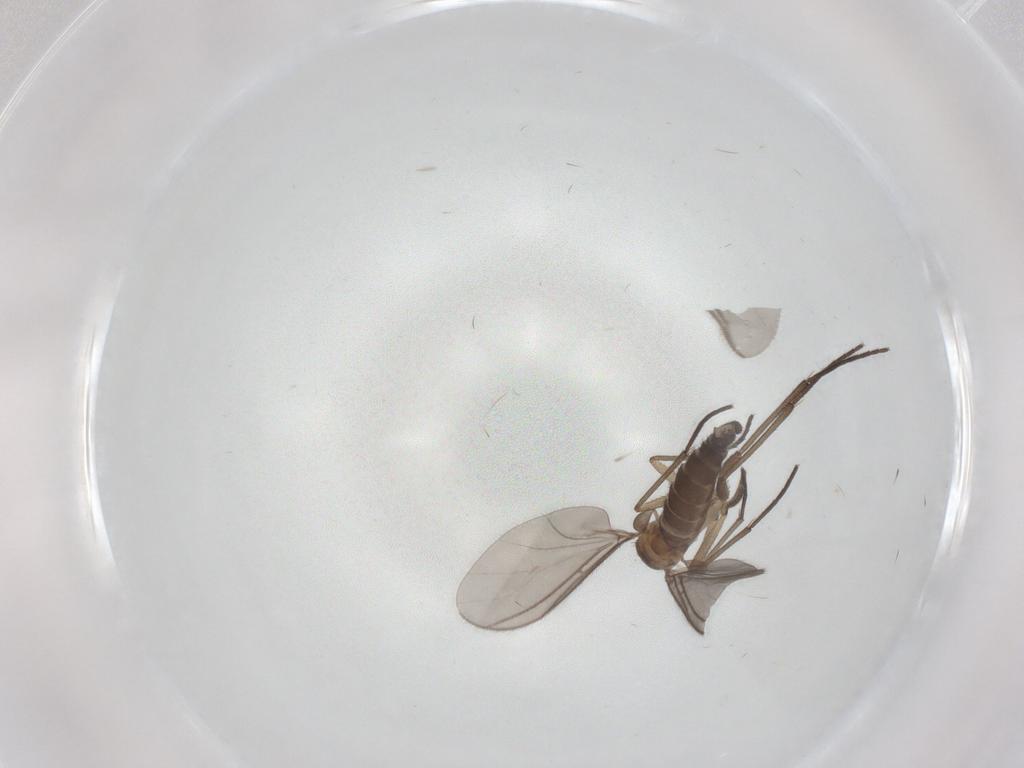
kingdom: Animalia
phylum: Arthropoda
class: Insecta
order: Diptera
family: Sciaridae
